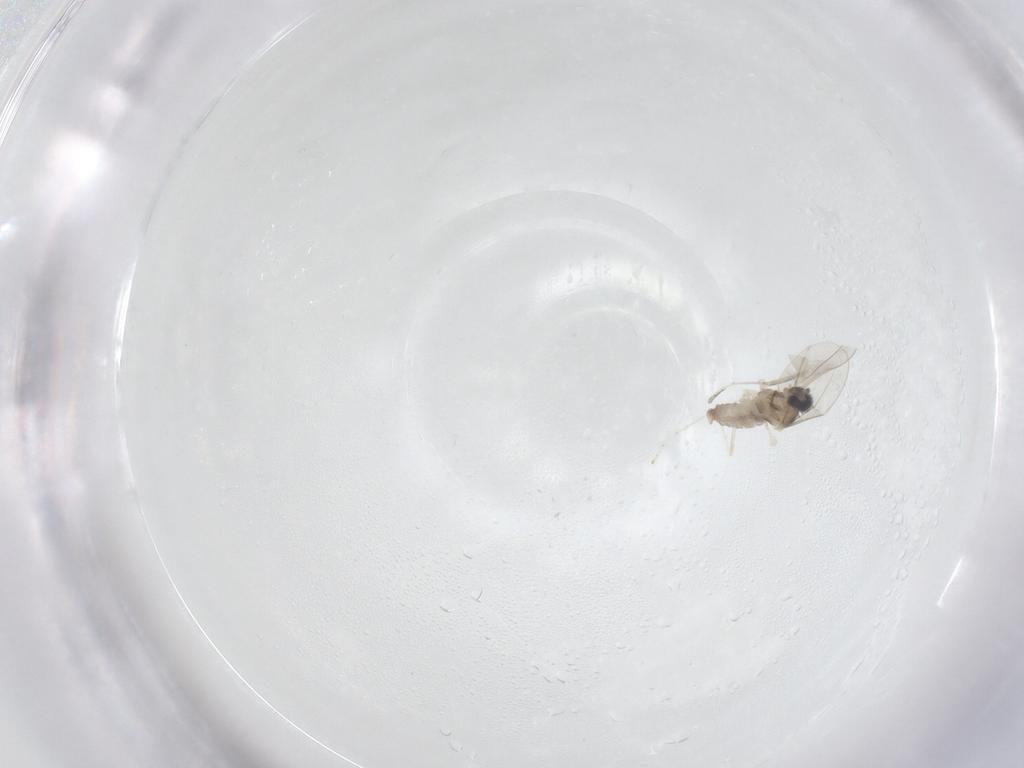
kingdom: Animalia
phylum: Arthropoda
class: Insecta
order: Diptera
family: Cecidomyiidae
